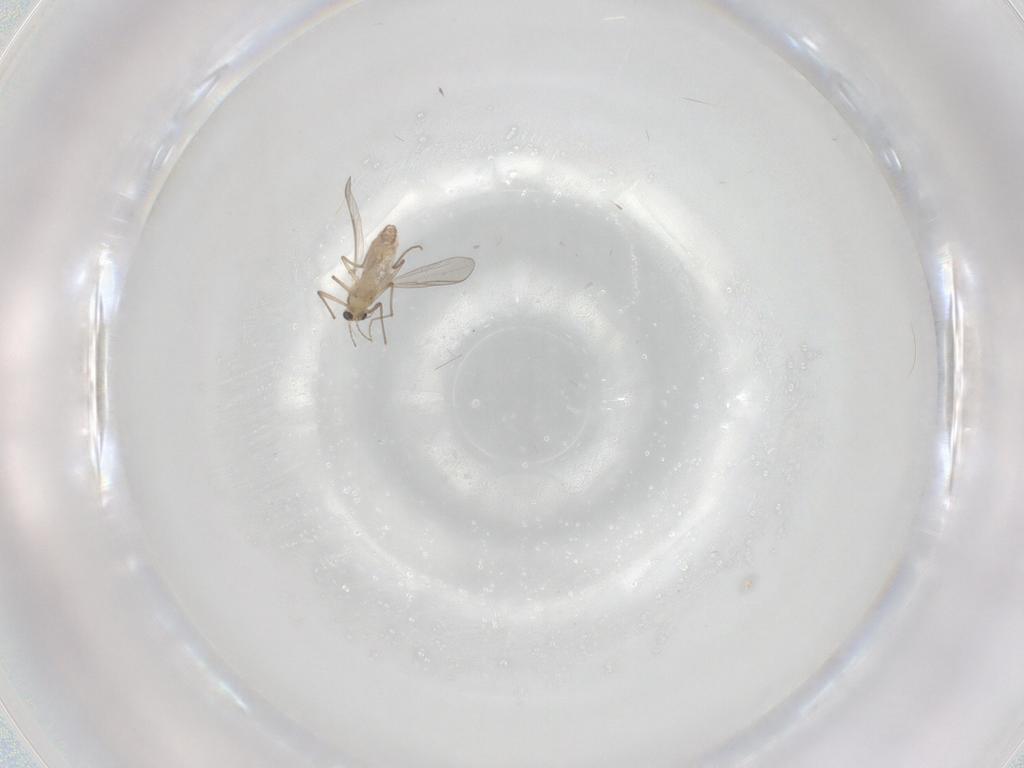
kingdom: Animalia
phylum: Arthropoda
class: Insecta
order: Diptera
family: Chironomidae
